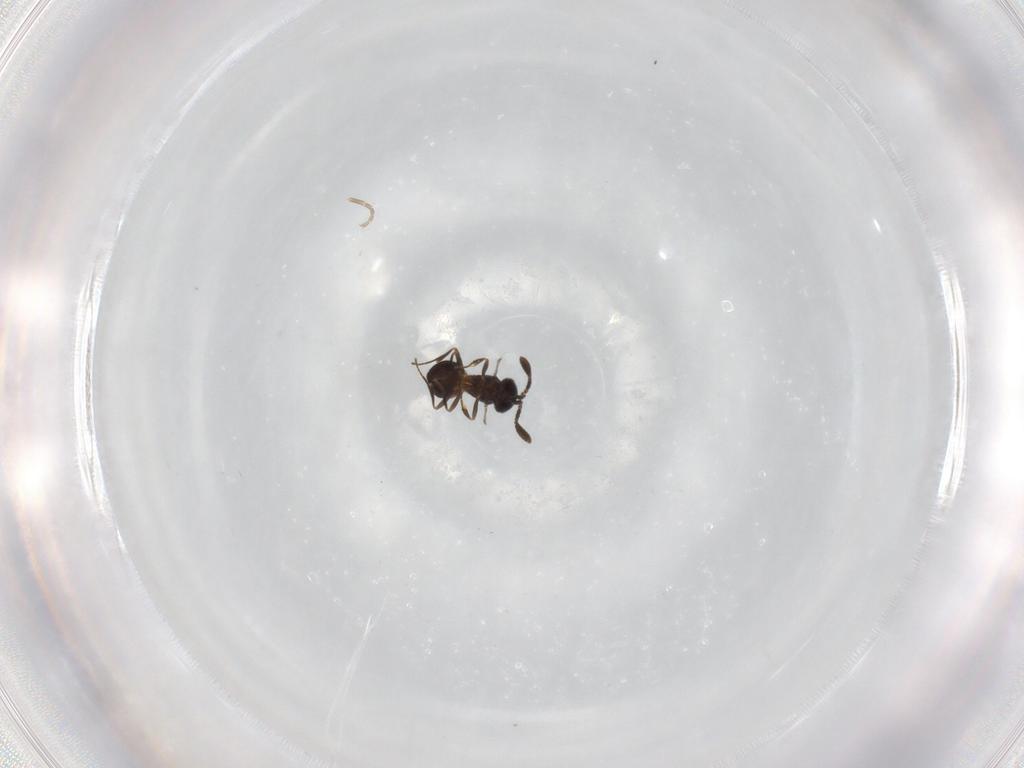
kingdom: Animalia
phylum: Arthropoda
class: Insecta
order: Hymenoptera
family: Scelionidae
